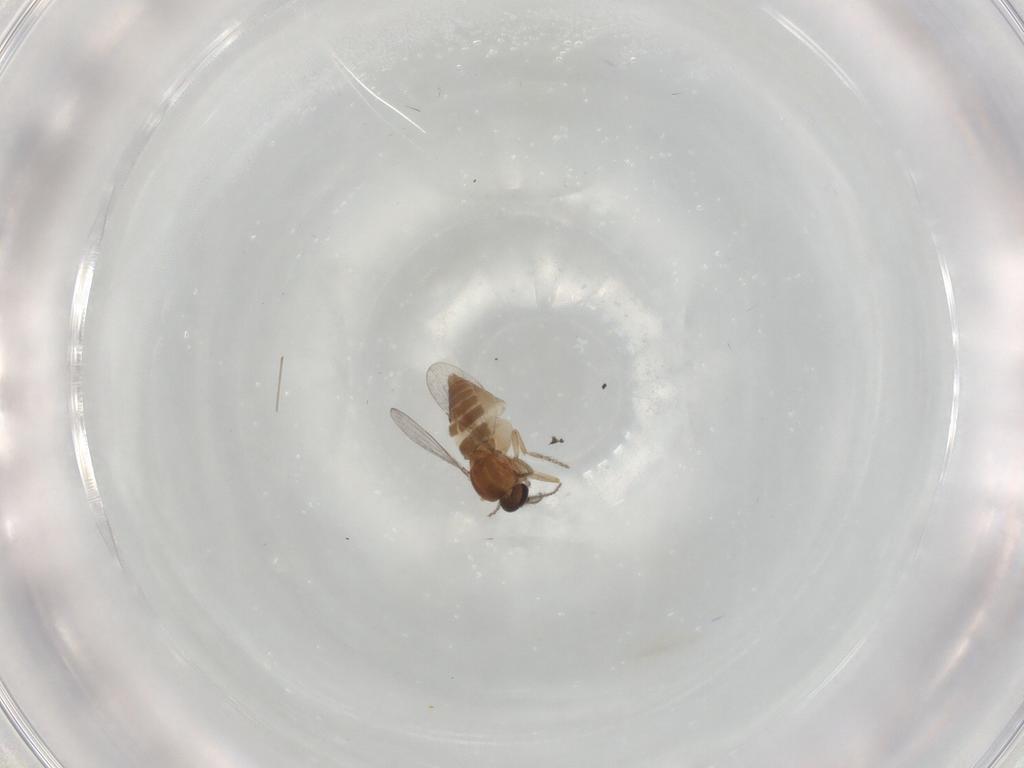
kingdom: Animalia
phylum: Arthropoda
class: Insecta
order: Diptera
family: Ceratopogonidae
